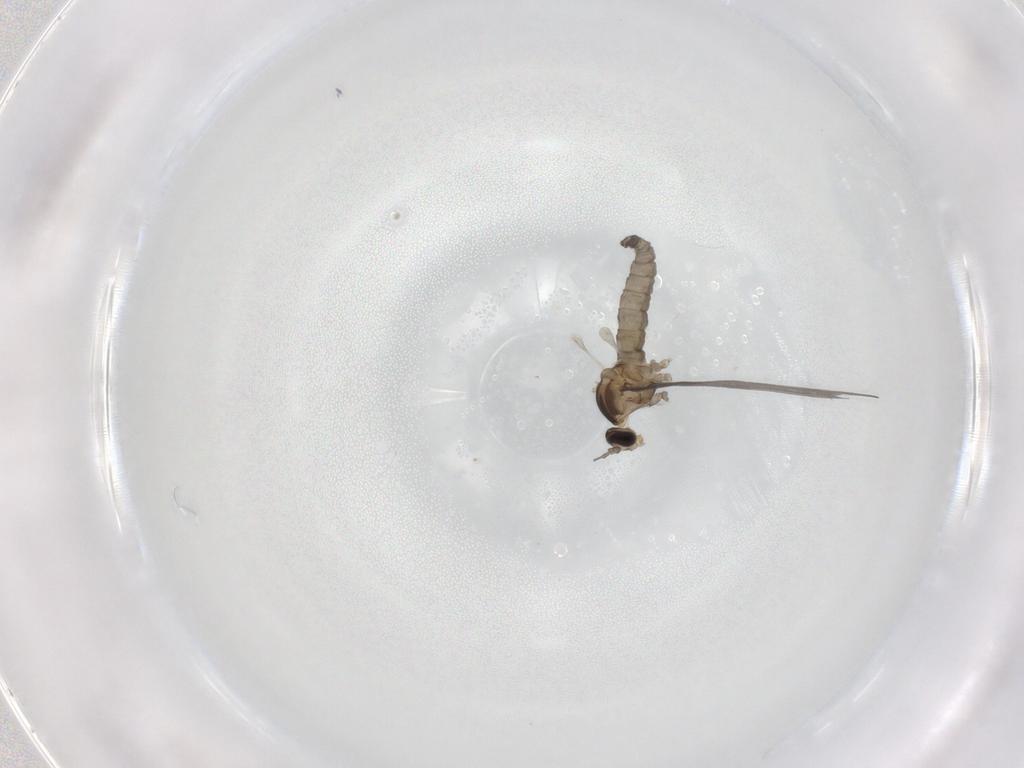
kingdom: Animalia
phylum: Arthropoda
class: Insecta
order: Diptera
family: Cecidomyiidae
